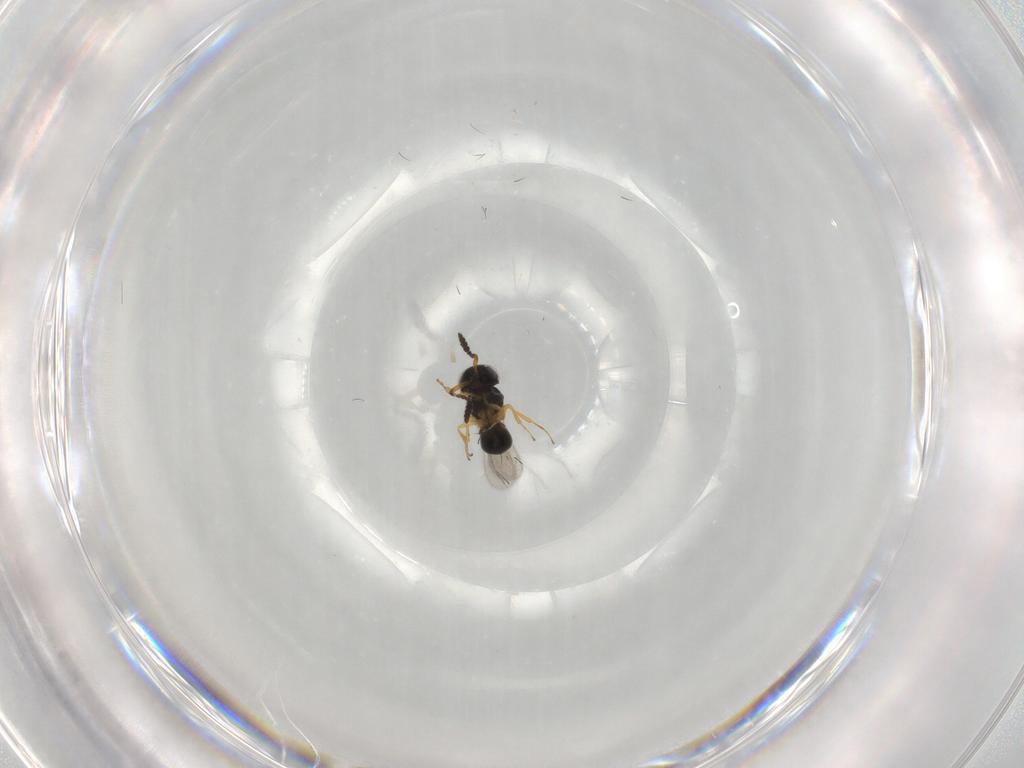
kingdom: Animalia
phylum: Arthropoda
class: Insecta
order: Hymenoptera
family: Scelionidae
